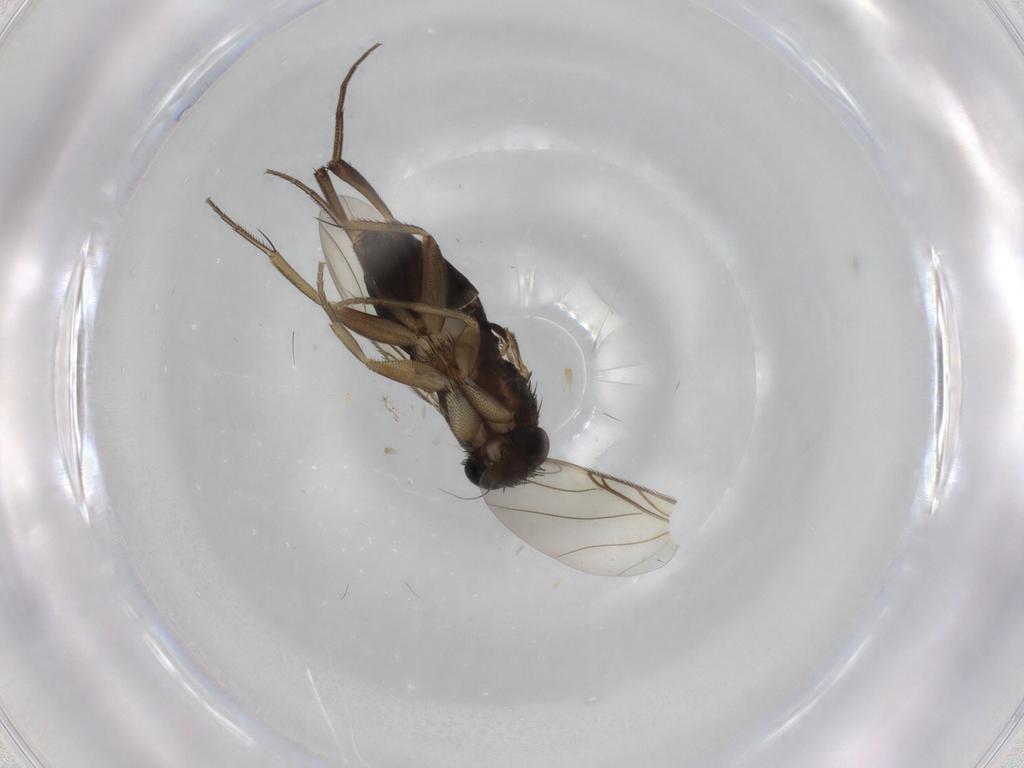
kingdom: Animalia
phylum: Arthropoda
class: Insecta
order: Diptera
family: Phoridae
